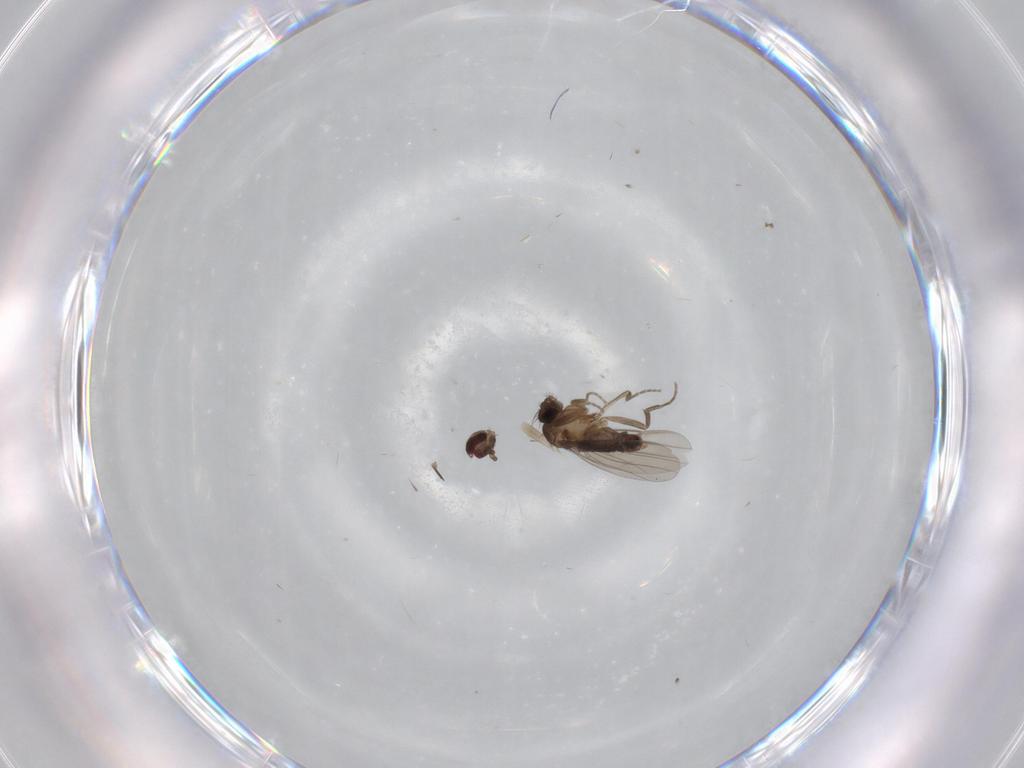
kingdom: Animalia
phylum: Arthropoda
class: Insecta
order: Diptera
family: Phoridae
